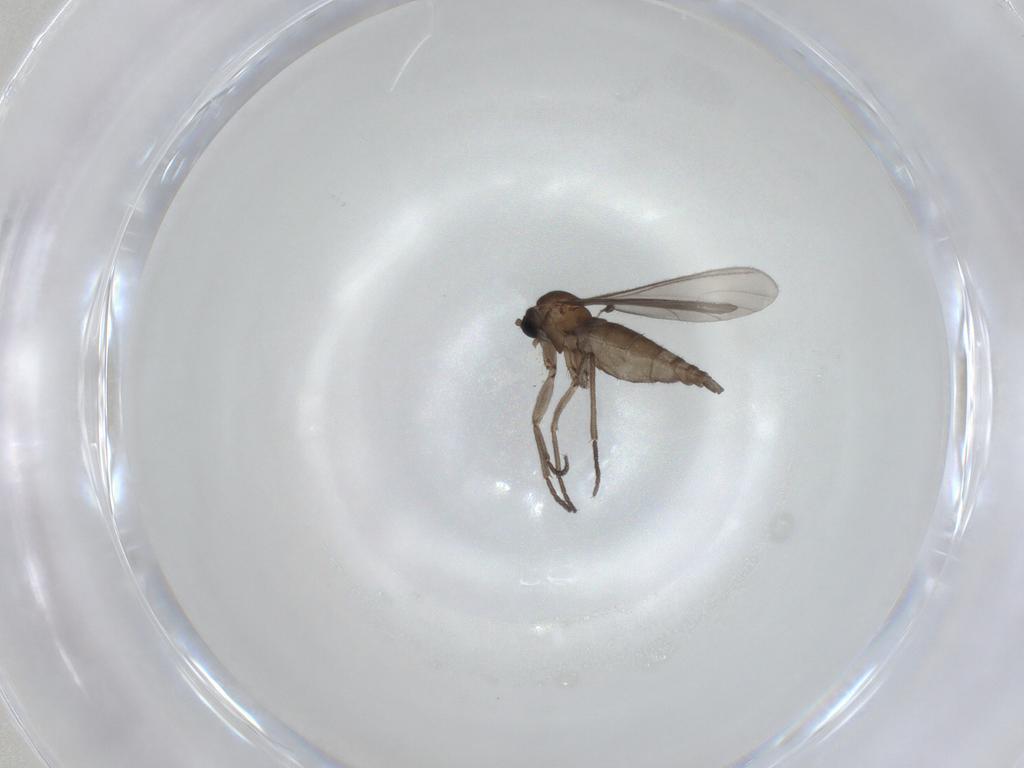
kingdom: Animalia
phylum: Arthropoda
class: Insecta
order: Diptera
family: Sciaridae
